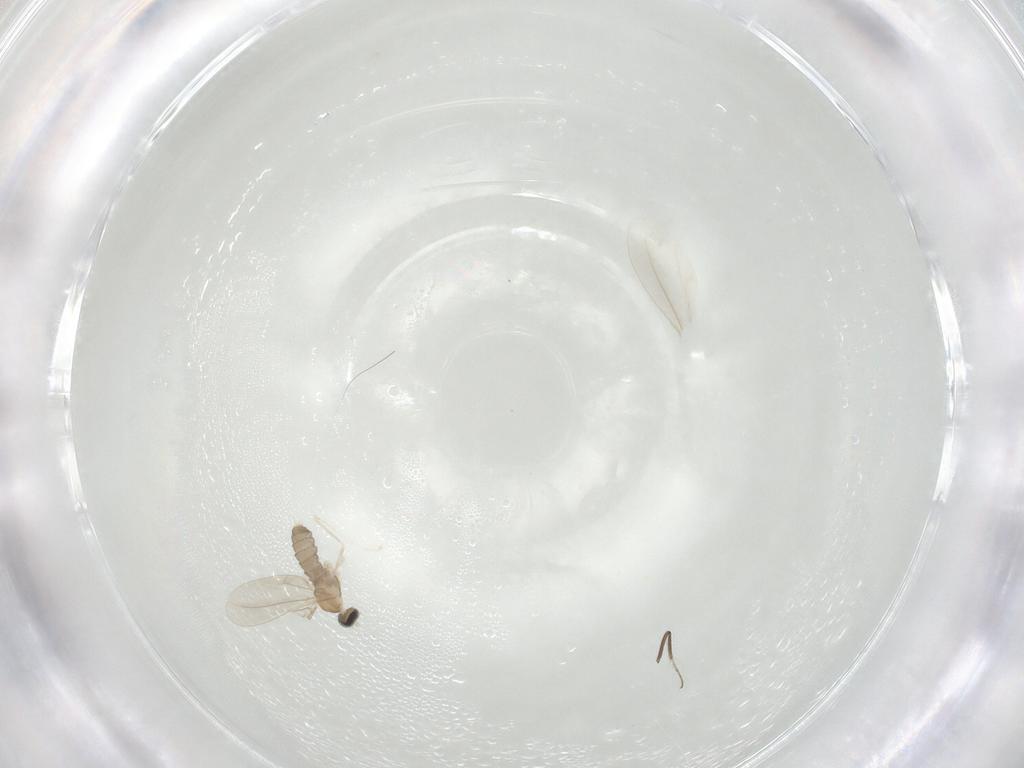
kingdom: Animalia
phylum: Arthropoda
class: Insecta
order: Diptera
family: Cecidomyiidae
